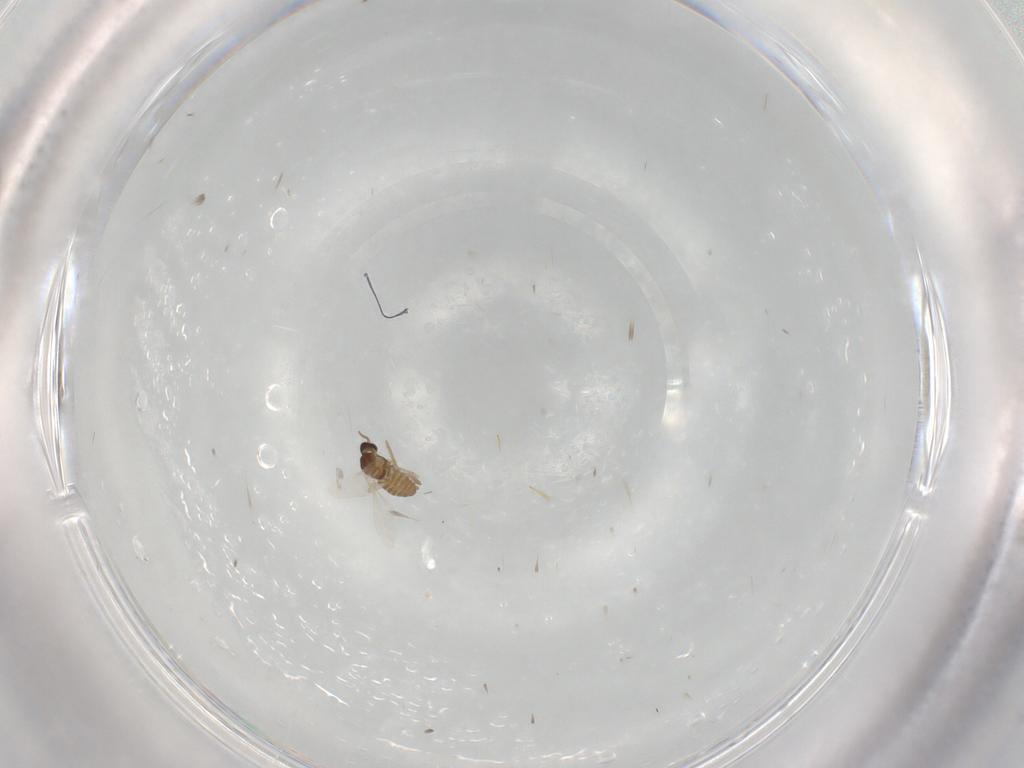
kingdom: Animalia
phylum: Arthropoda
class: Insecta
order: Diptera
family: Cecidomyiidae
